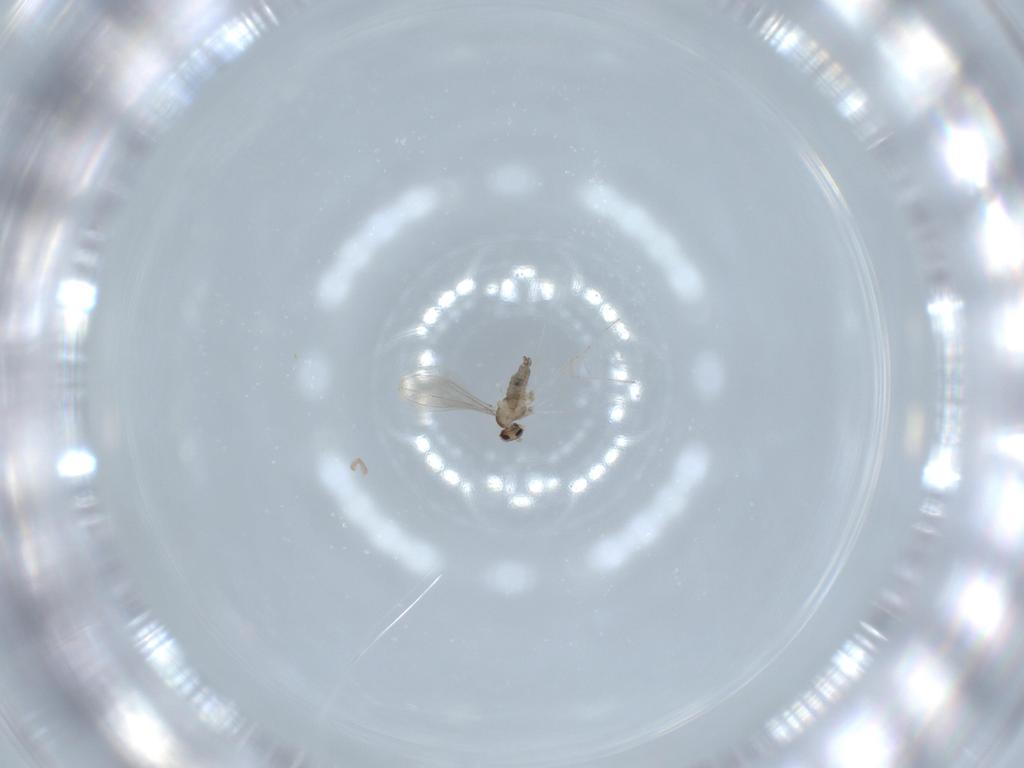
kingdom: Animalia
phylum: Arthropoda
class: Insecta
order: Diptera
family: Cecidomyiidae
